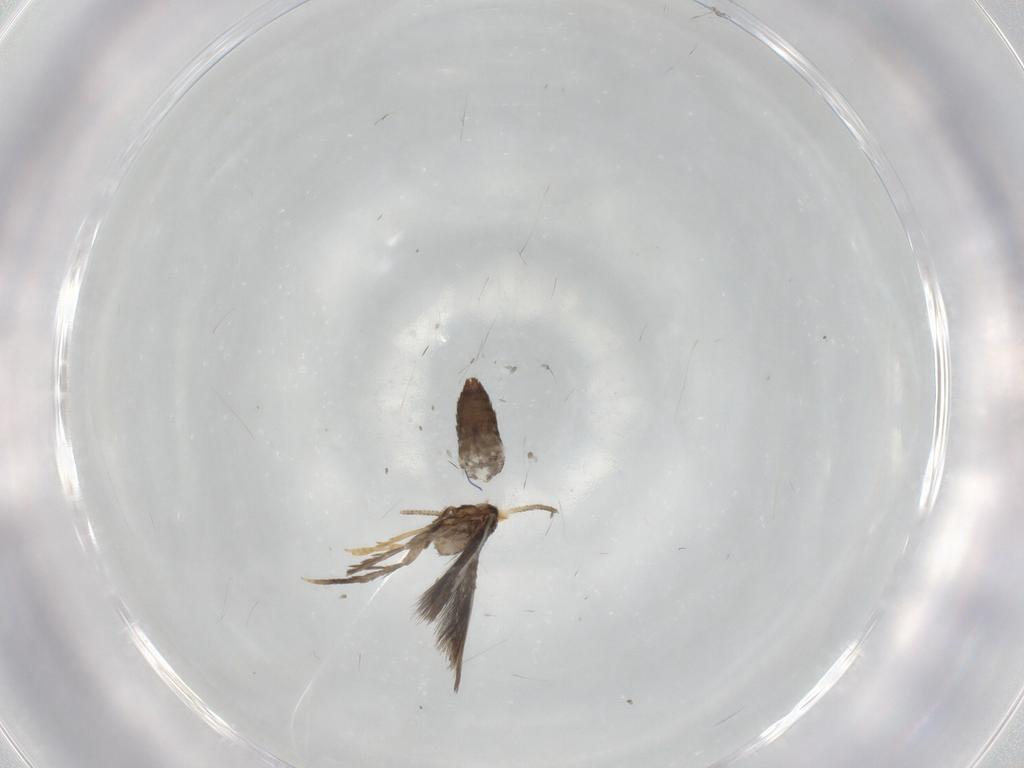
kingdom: Animalia
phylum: Arthropoda
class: Insecta
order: Lepidoptera
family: Nepticulidae
